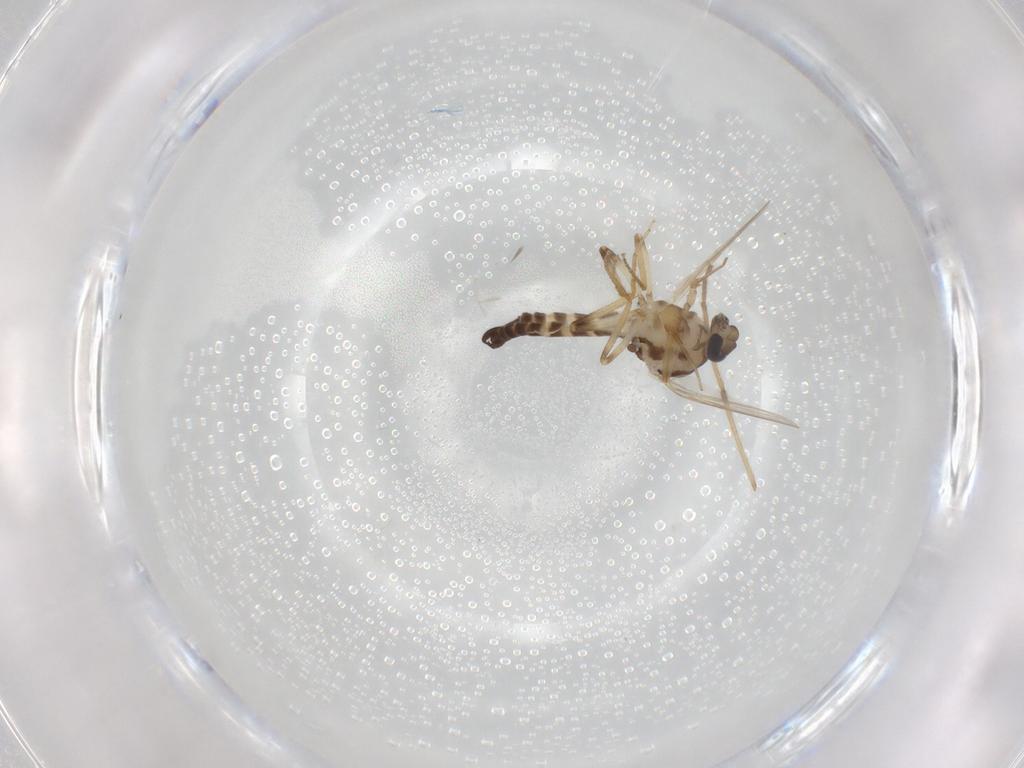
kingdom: Animalia
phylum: Arthropoda
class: Insecta
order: Diptera
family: Ceratopogonidae
